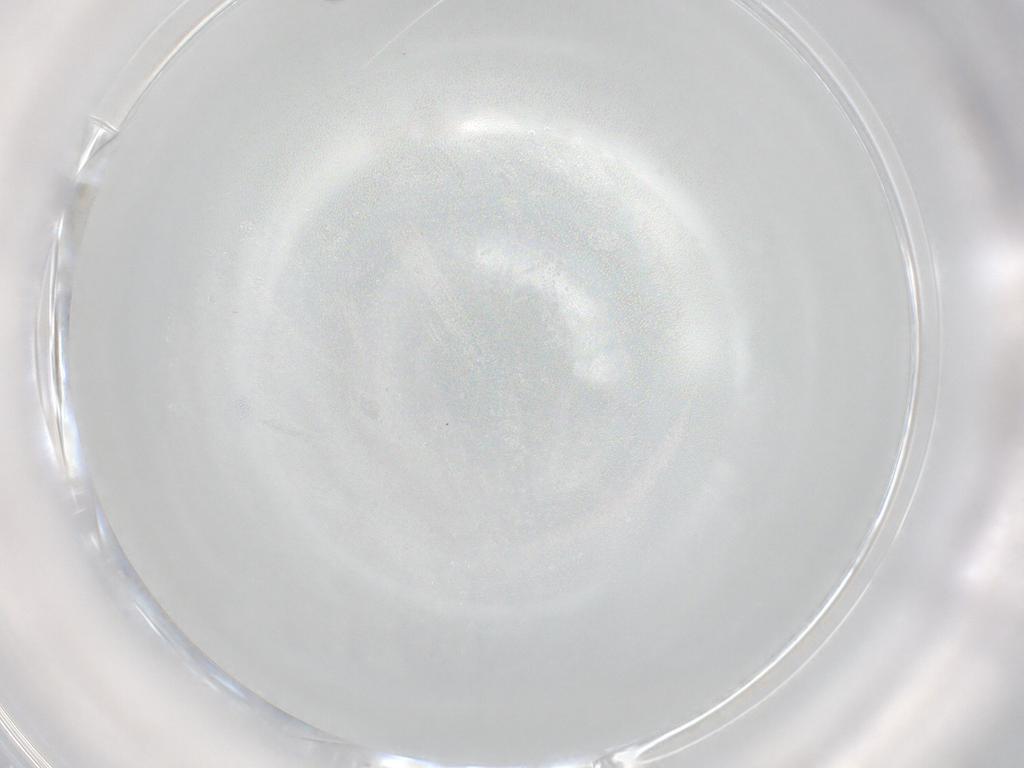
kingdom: Animalia
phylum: Arthropoda
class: Insecta
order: Hymenoptera
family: Encyrtidae
